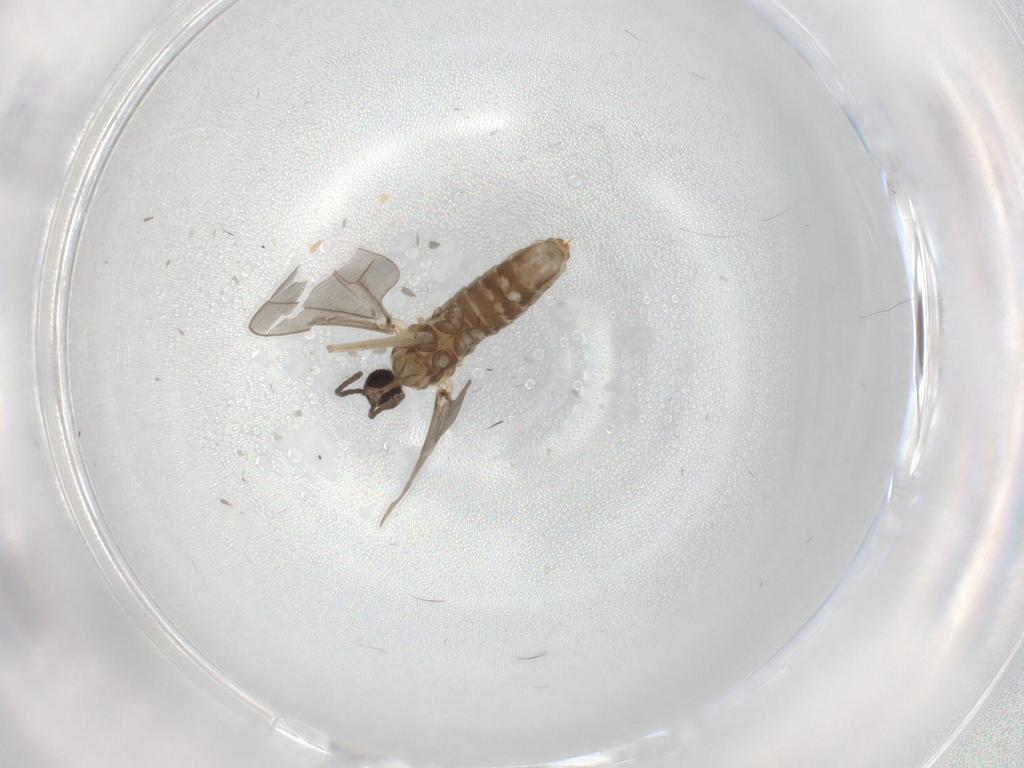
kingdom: Animalia
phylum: Arthropoda
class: Insecta
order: Diptera
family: Cecidomyiidae
